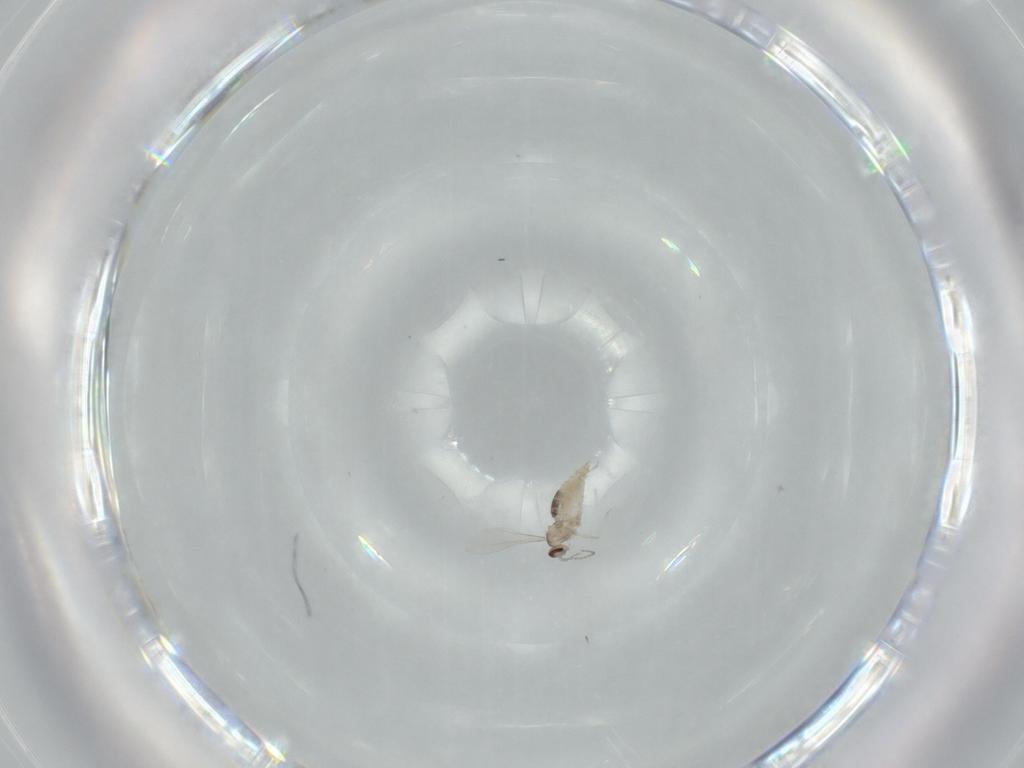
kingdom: Animalia
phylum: Arthropoda
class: Insecta
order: Diptera
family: Cecidomyiidae
